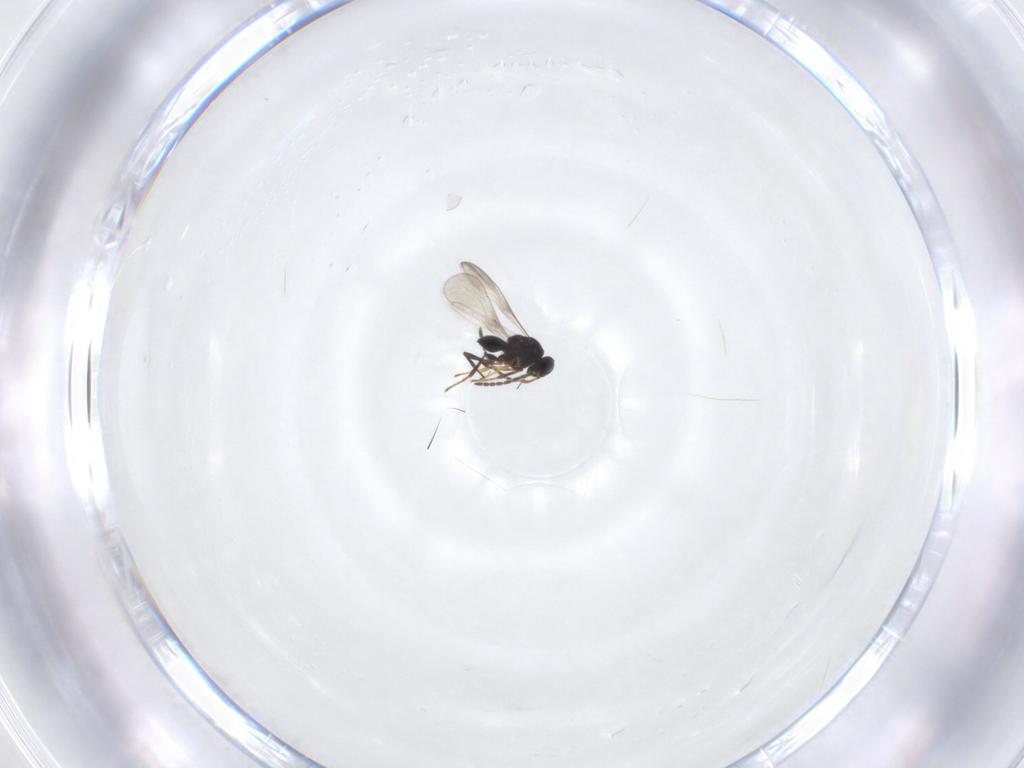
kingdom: Animalia
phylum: Arthropoda
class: Insecta
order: Hymenoptera
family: Platygastridae
